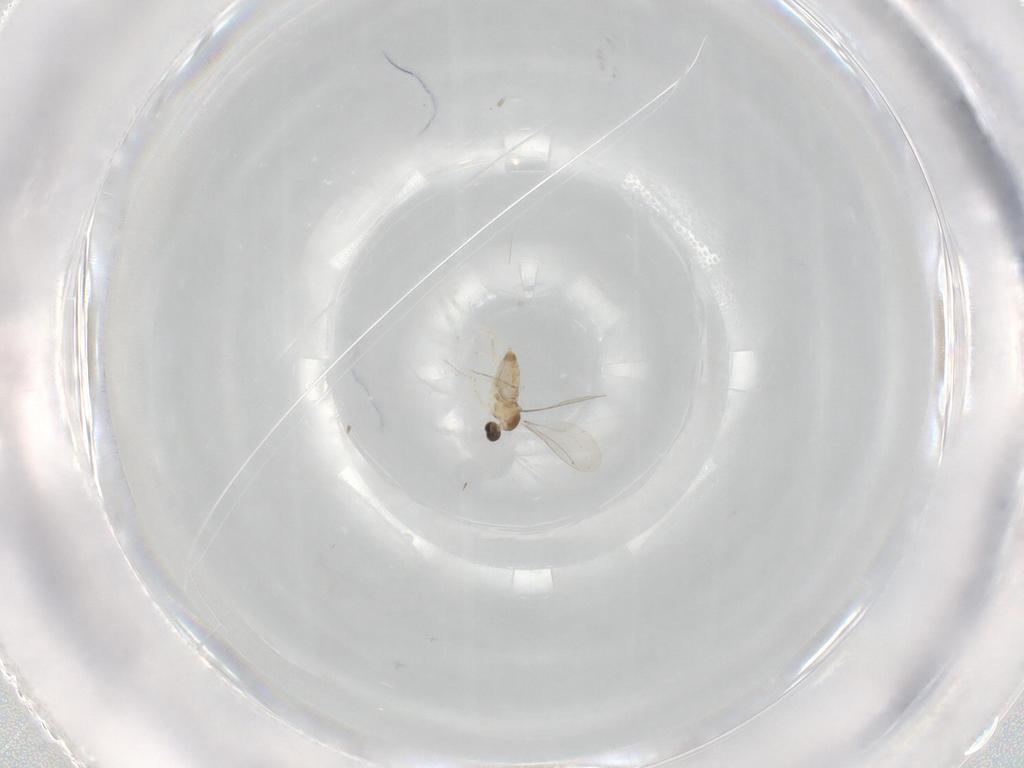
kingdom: Animalia
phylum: Arthropoda
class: Insecta
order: Diptera
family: Cecidomyiidae
